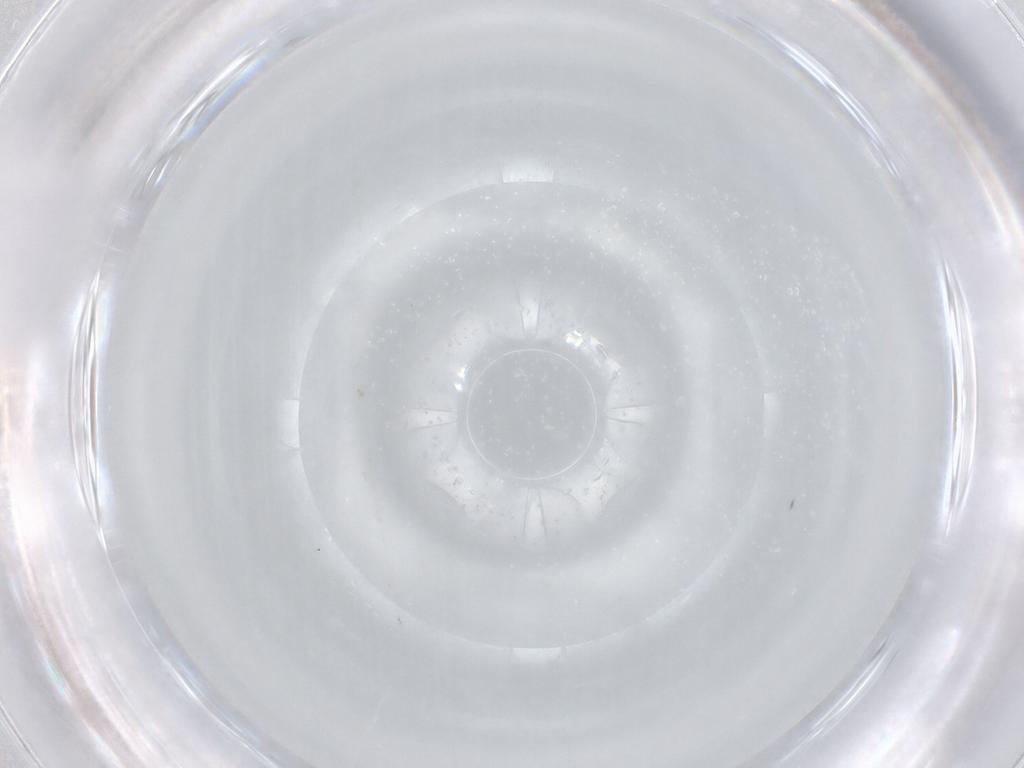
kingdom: Animalia
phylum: Arthropoda
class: Insecta
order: Diptera
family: Cecidomyiidae
